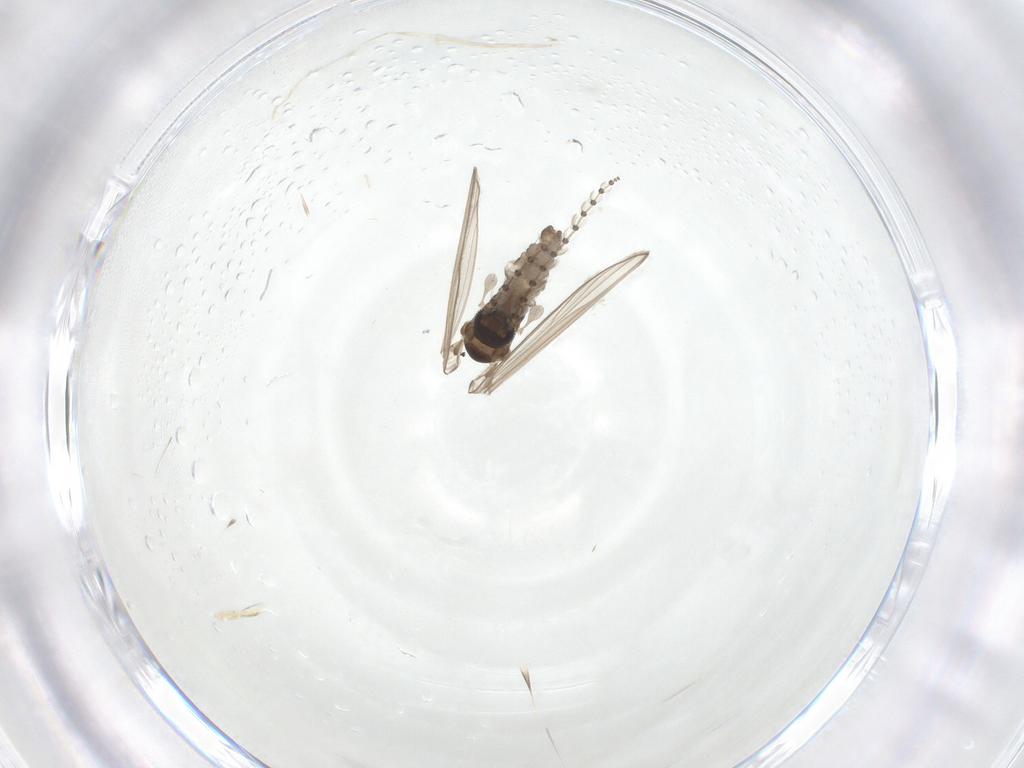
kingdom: Animalia
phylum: Arthropoda
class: Insecta
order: Diptera
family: Psychodidae
